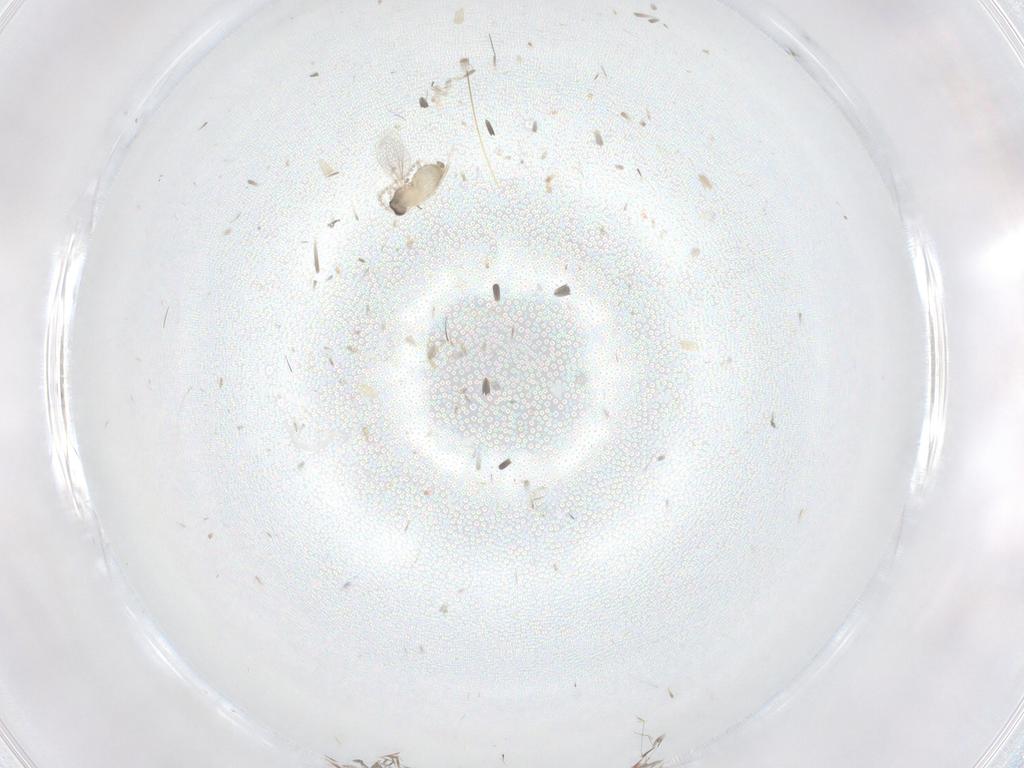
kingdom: Animalia
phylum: Arthropoda
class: Insecta
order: Diptera
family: Cecidomyiidae
